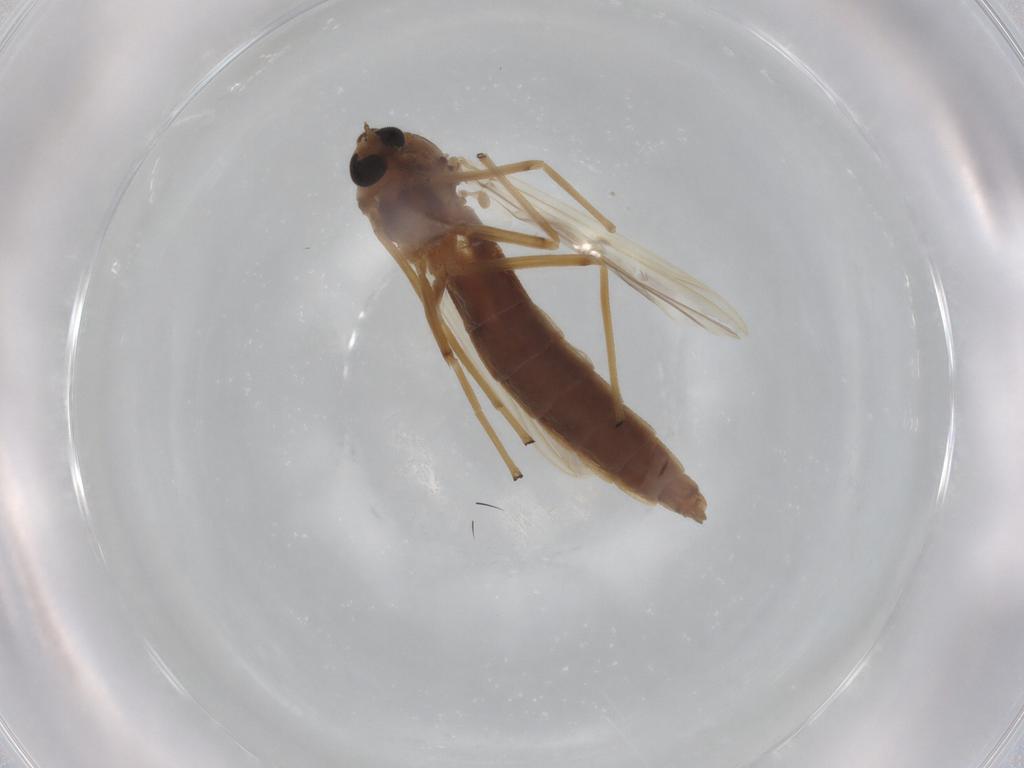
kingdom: Animalia
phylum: Arthropoda
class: Insecta
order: Diptera
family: Chironomidae
